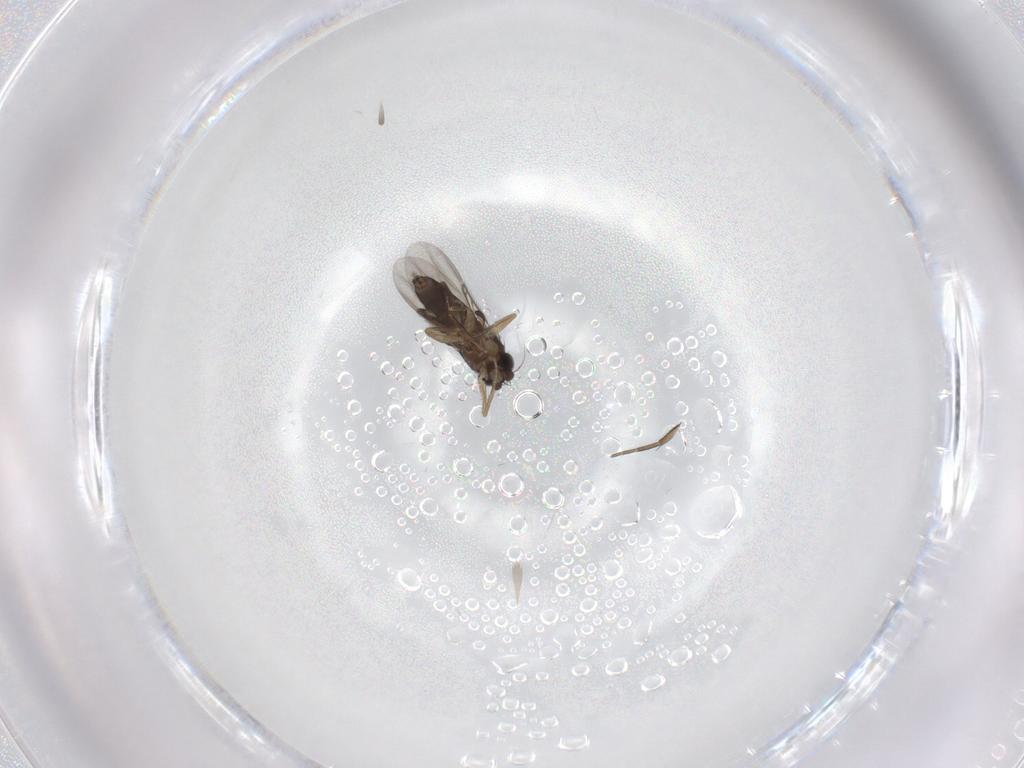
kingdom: Animalia
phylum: Arthropoda
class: Insecta
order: Diptera
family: Phoridae
